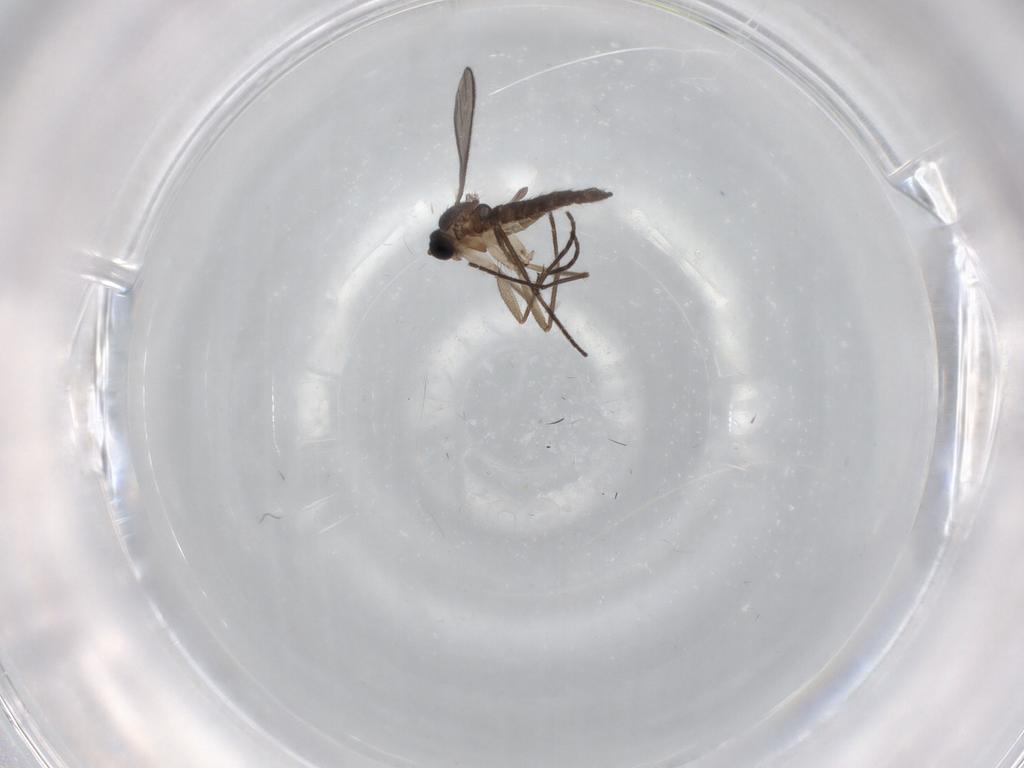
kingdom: Animalia
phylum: Arthropoda
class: Insecta
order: Diptera
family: Sciaridae
